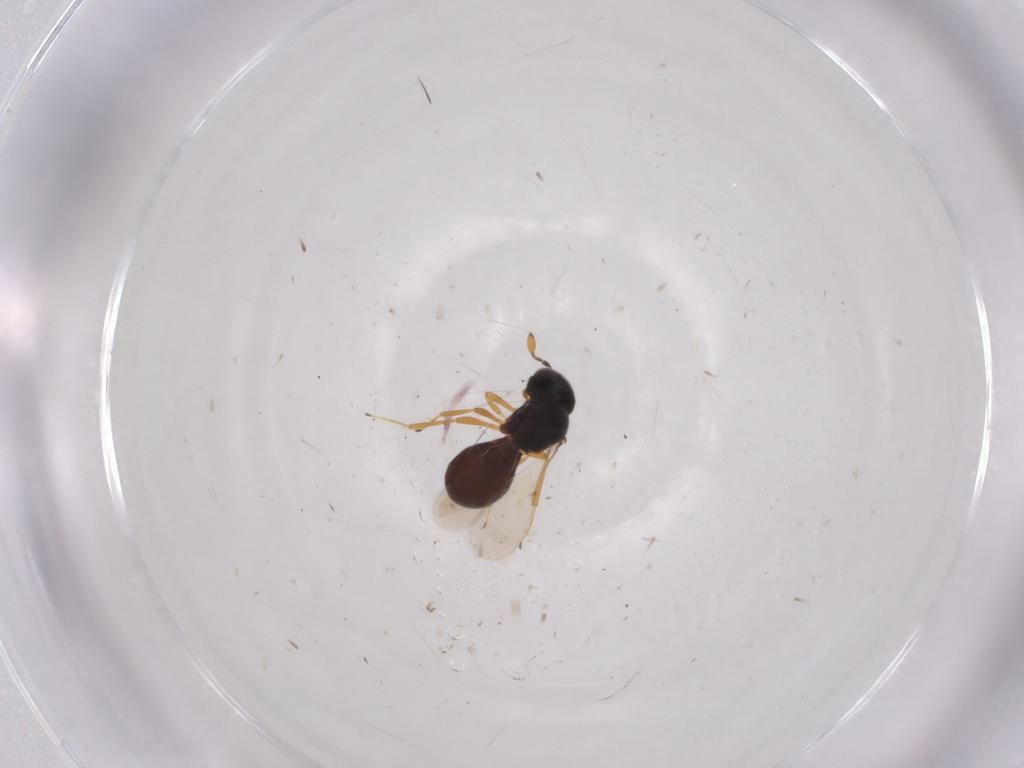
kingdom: Animalia
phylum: Arthropoda
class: Insecta
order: Hymenoptera
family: Scelionidae
